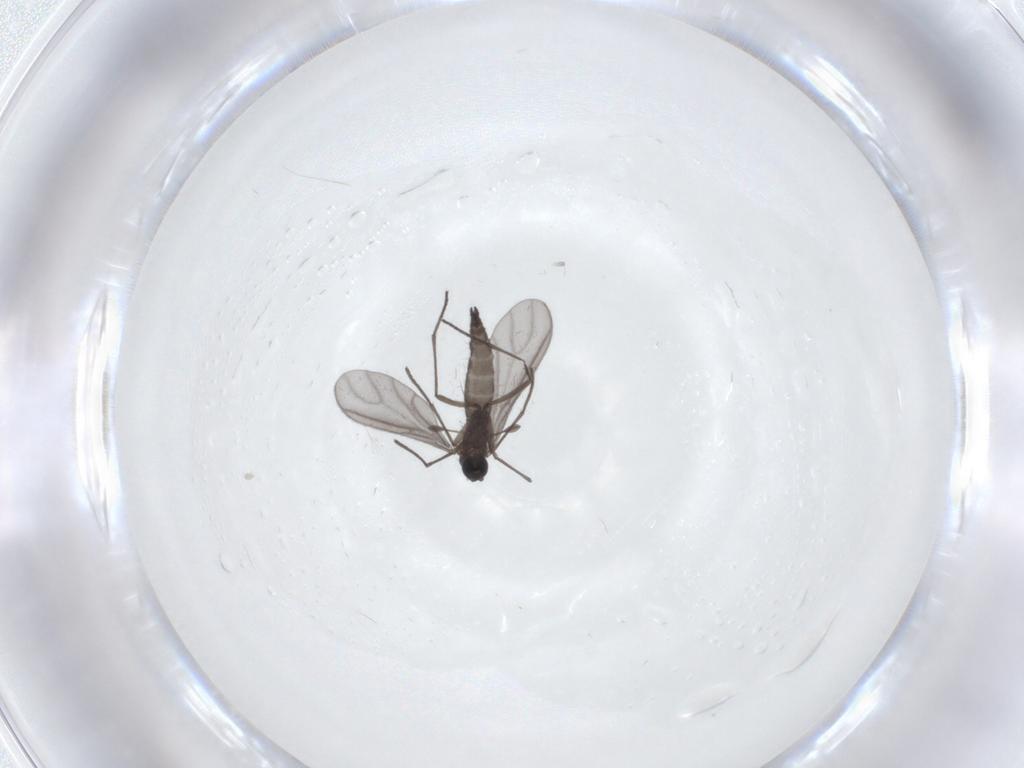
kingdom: Animalia
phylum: Arthropoda
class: Insecta
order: Diptera
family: Sciaridae
